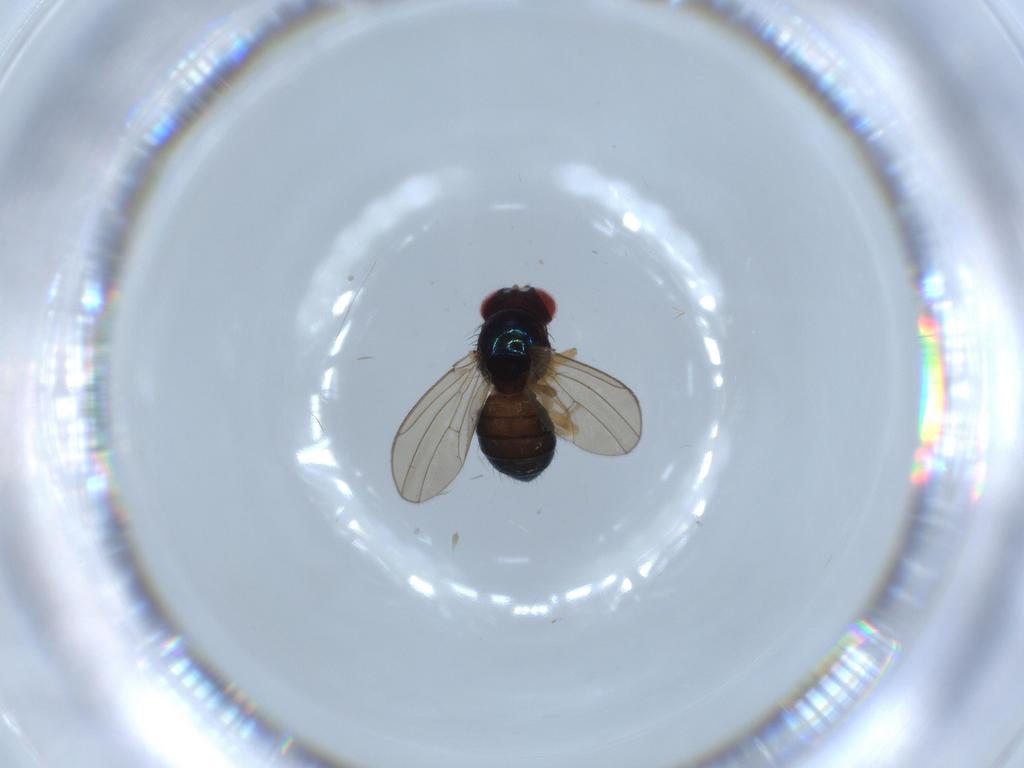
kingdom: Animalia
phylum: Arthropoda
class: Insecta
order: Diptera
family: Drosophilidae
